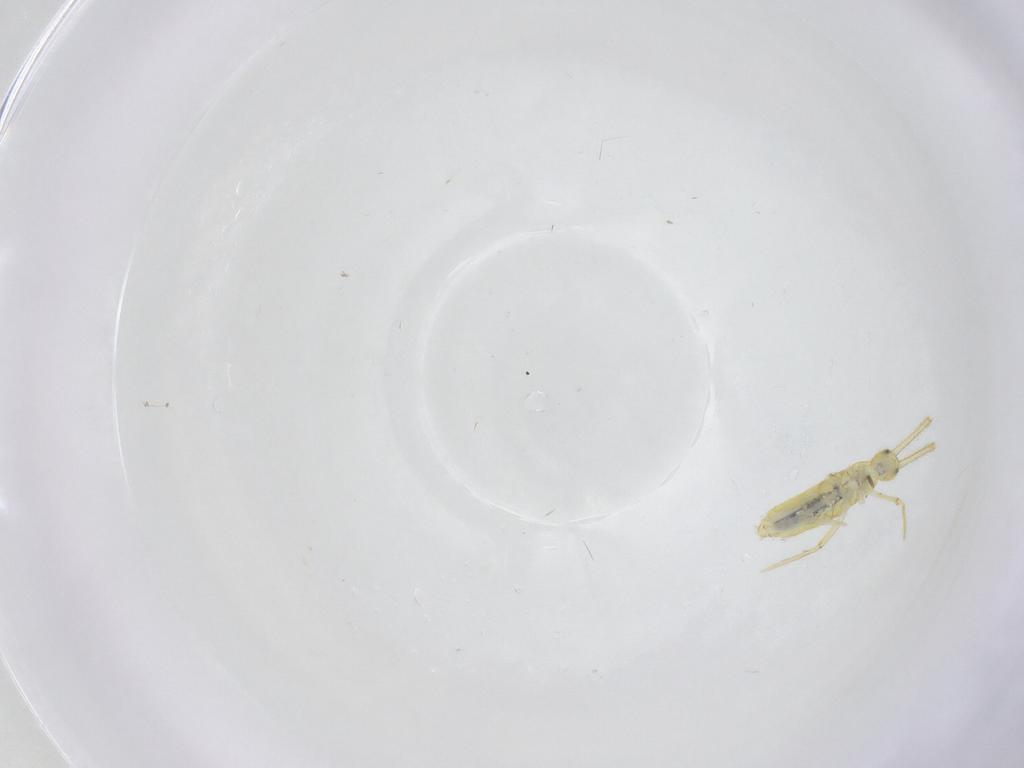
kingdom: Animalia
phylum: Arthropoda
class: Collembola
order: Entomobryomorpha
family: Paronellidae
